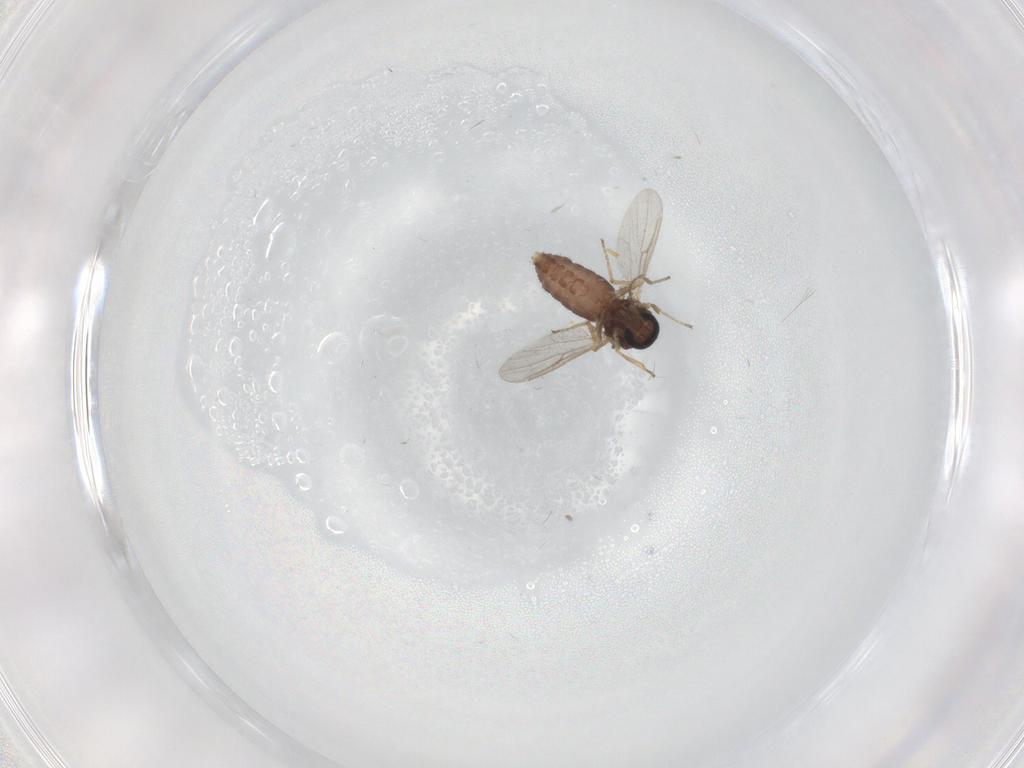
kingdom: Animalia
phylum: Arthropoda
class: Insecta
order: Diptera
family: Ceratopogonidae
